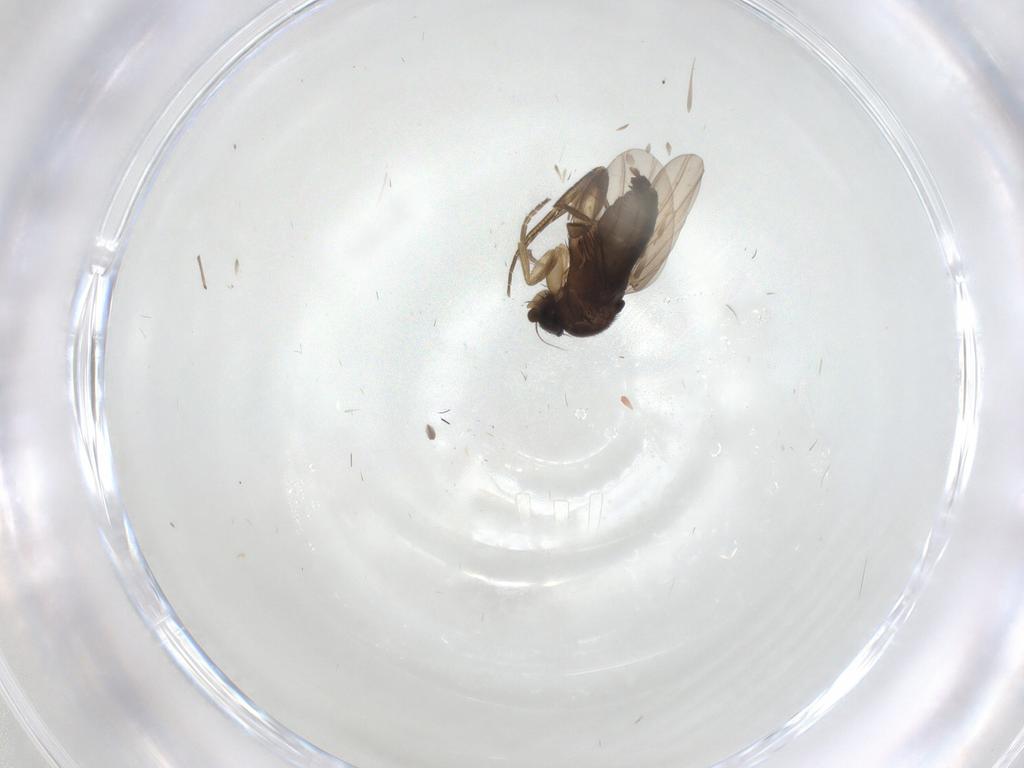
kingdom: Animalia
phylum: Arthropoda
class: Insecta
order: Diptera
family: Phoridae
